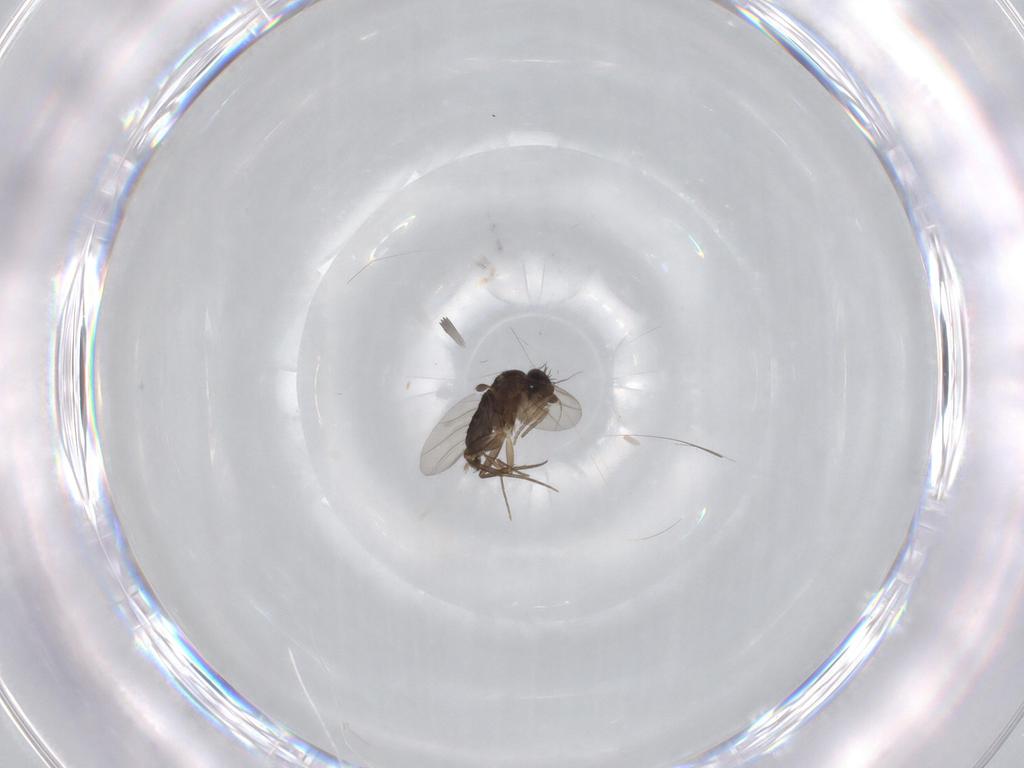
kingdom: Animalia
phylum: Arthropoda
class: Insecta
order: Diptera
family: Phoridae
